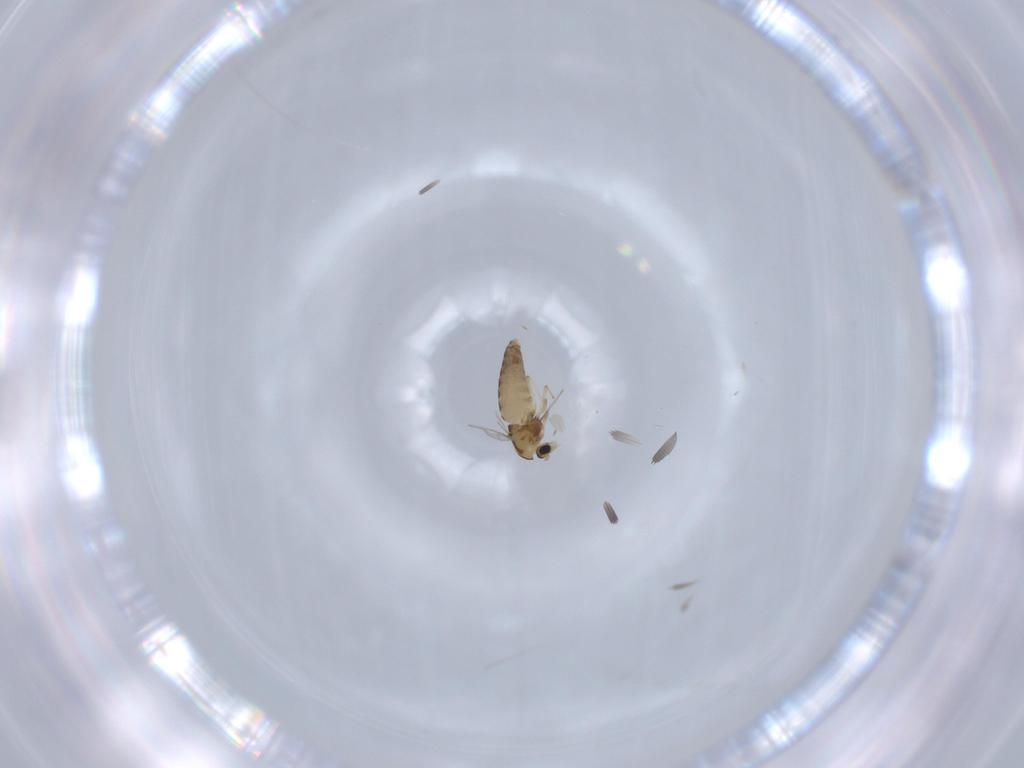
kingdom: Animalia
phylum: Arthropoda
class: Insecta
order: Diptera
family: Chironomidae
